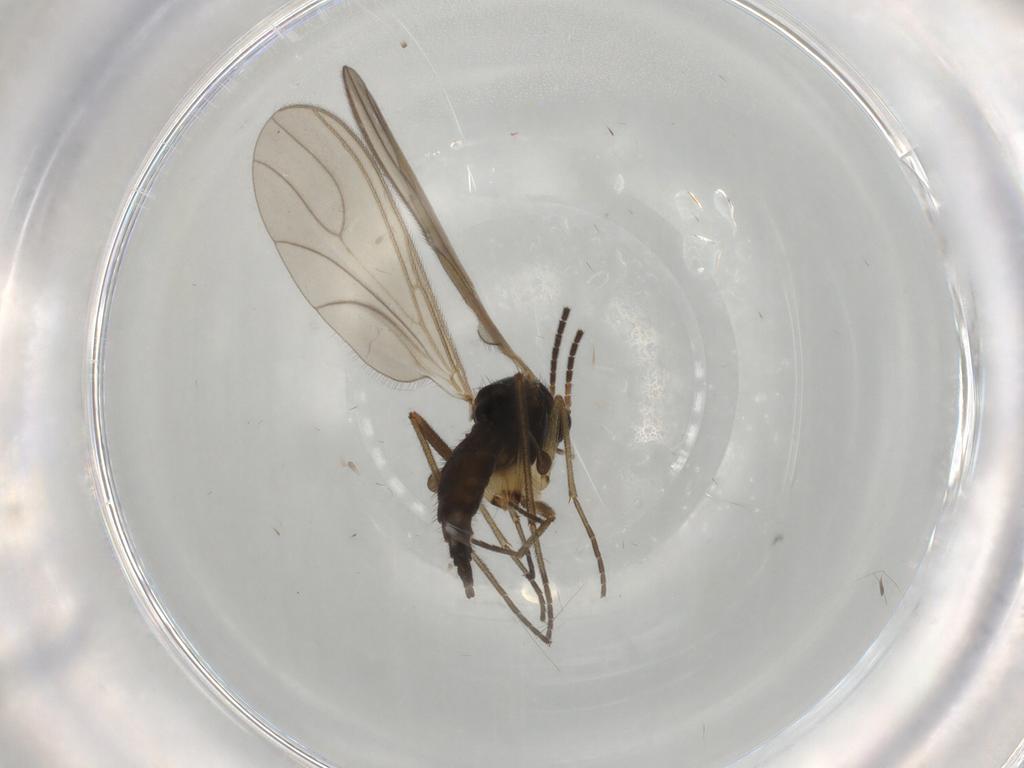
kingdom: Animalia
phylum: Arthropoda
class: Insecta
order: Diptera
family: Sciaridae
